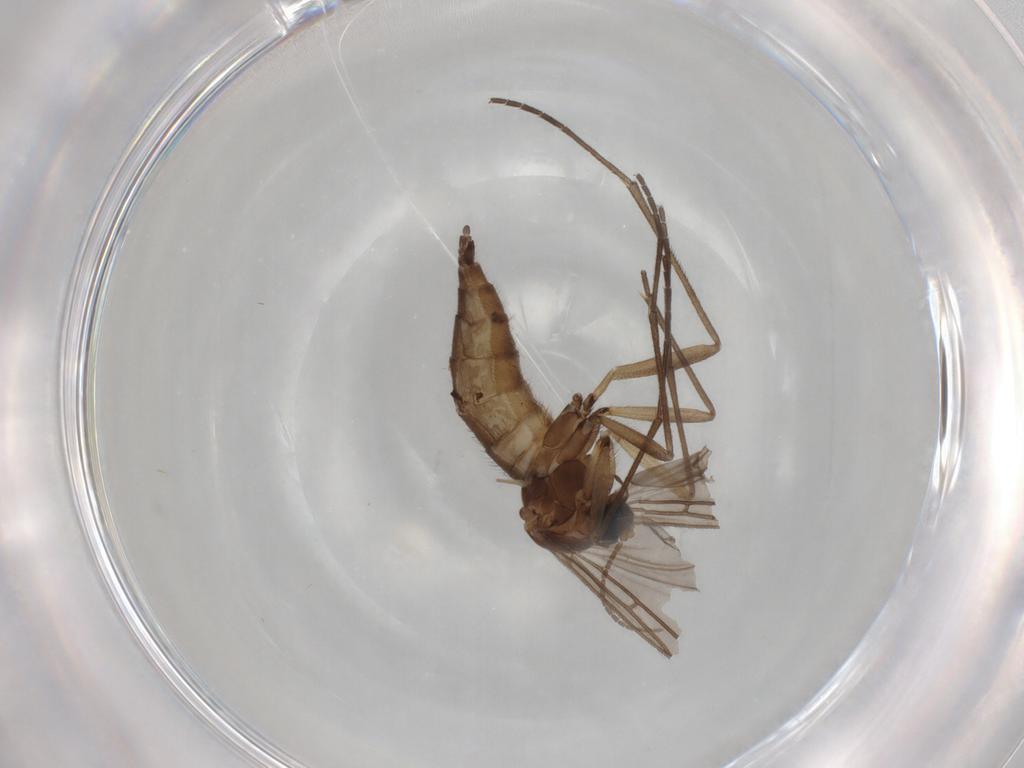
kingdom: Animalia
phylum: Arthropoda
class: Insecta
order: Diptera
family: Sciaridae
